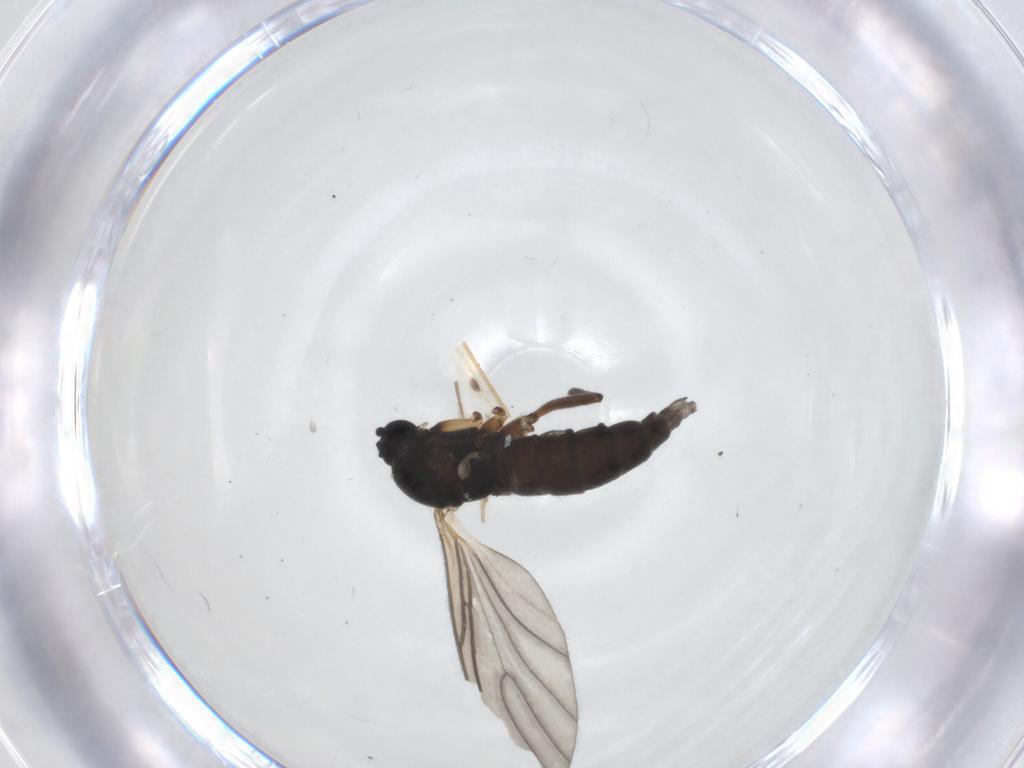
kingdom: Animalia
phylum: Arthropoda
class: Insecta
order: Diptera
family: Sciaridae
